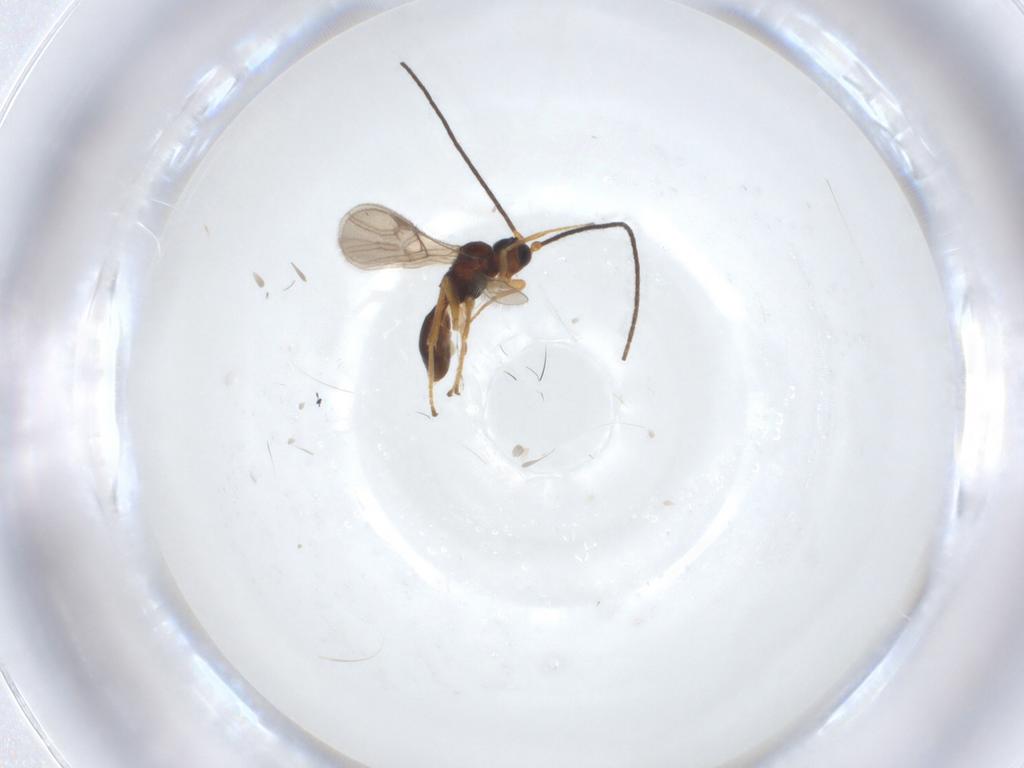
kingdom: Animalia
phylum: Arthropoda
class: Insecta
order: Hymenoptera
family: Braconidae
